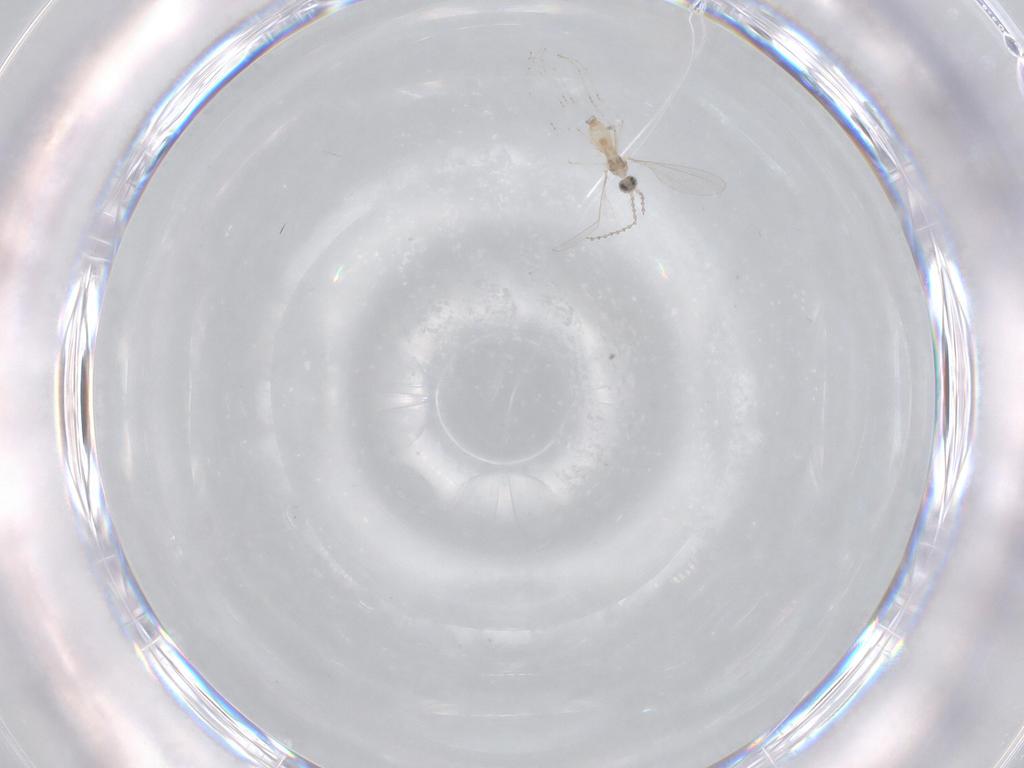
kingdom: Animalia
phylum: Arthropoda
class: Insecta
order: Diptera
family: Cecidomyiidae
